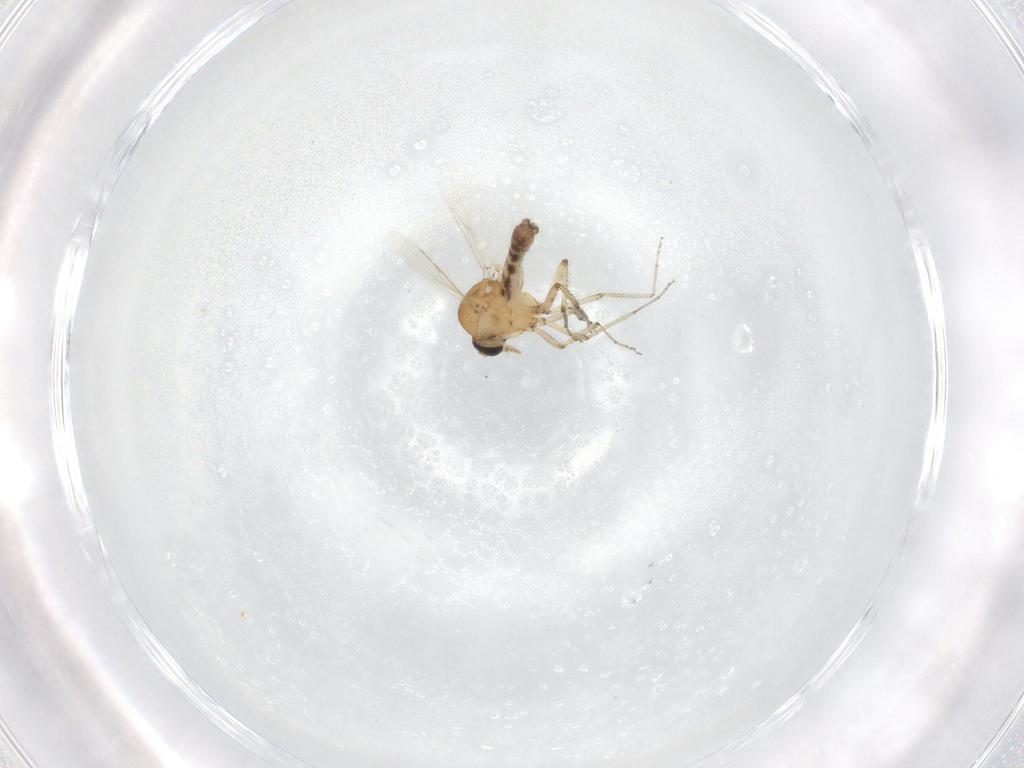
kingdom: Animalia
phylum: Arthropoda
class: Insecta
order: Diptera
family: Ceratopogonidae
